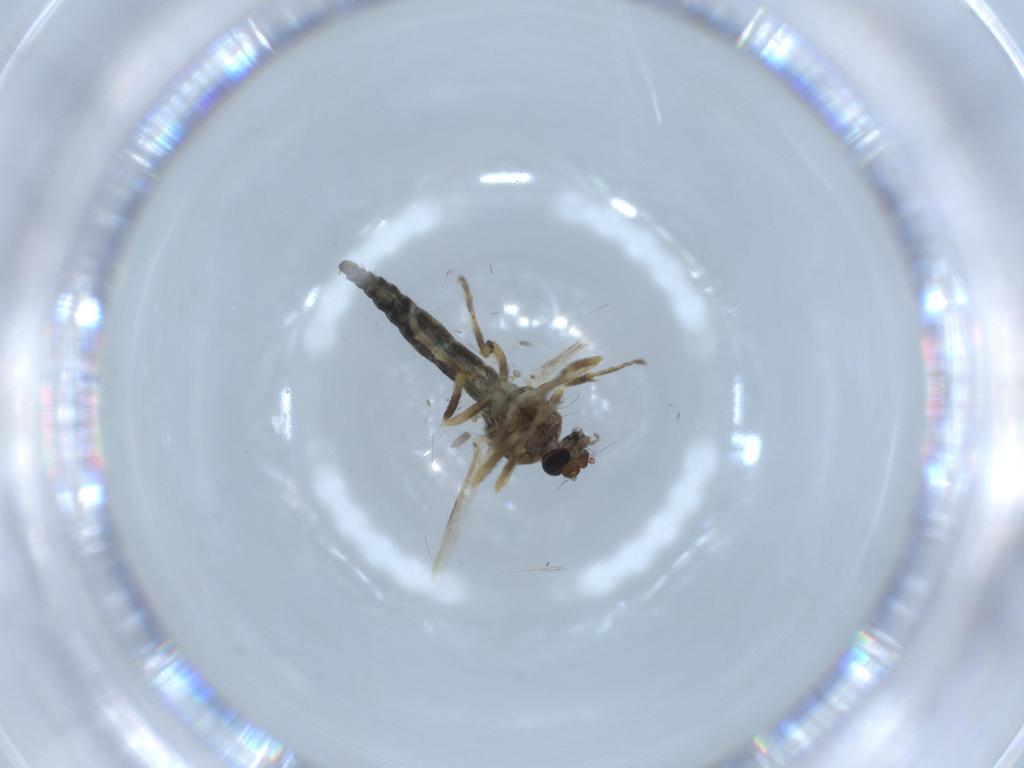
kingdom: Animalia
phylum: Arthropoda
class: Insecta
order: Diptera
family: Ceratopogonidae
